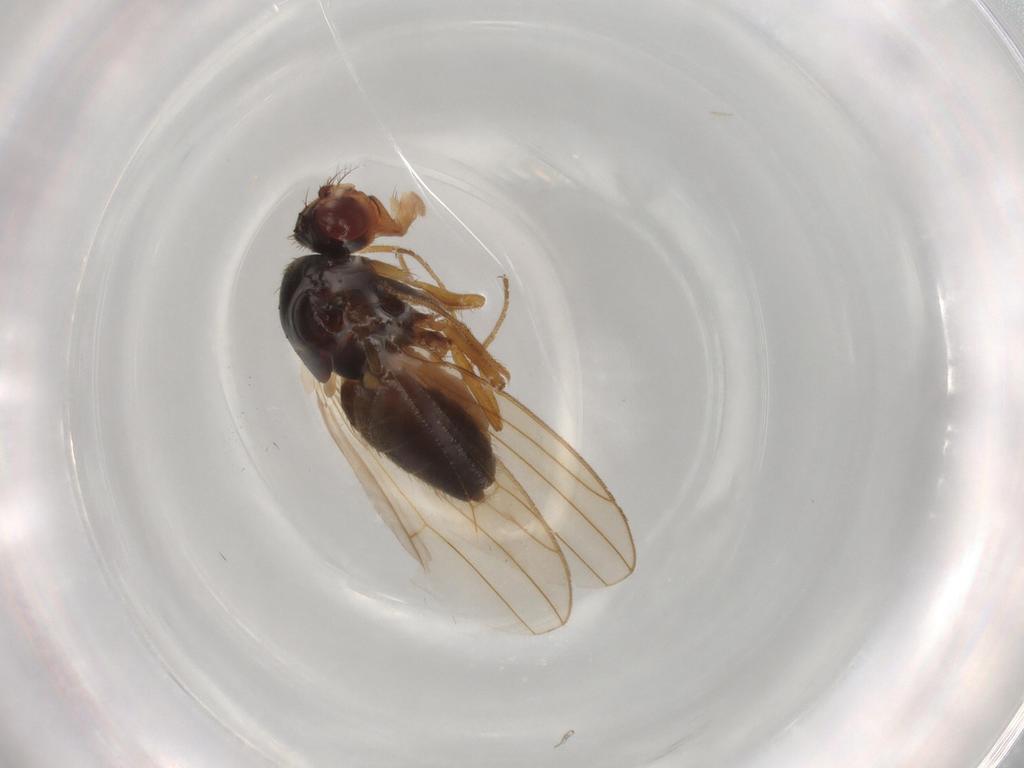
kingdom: Animalia
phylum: Arthropoda
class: Insecta
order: Diptera
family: Drosophilidae
